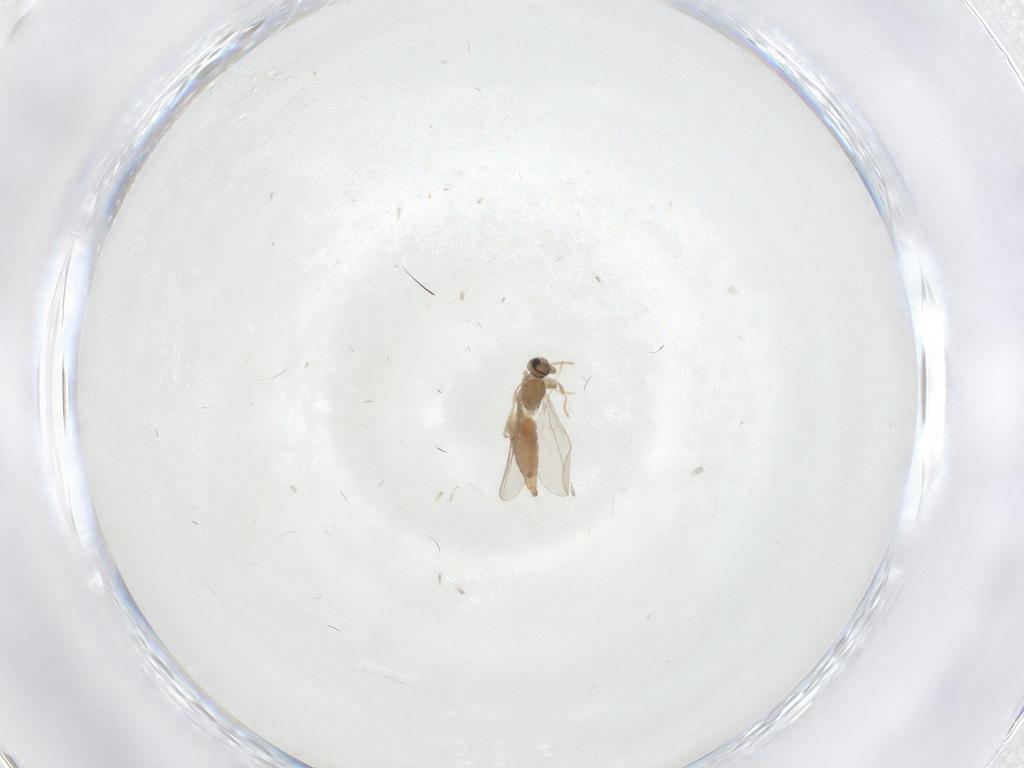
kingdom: Animalia
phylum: Arthropoda
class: Insecta
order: Diptera
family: Cecidomyiidae
